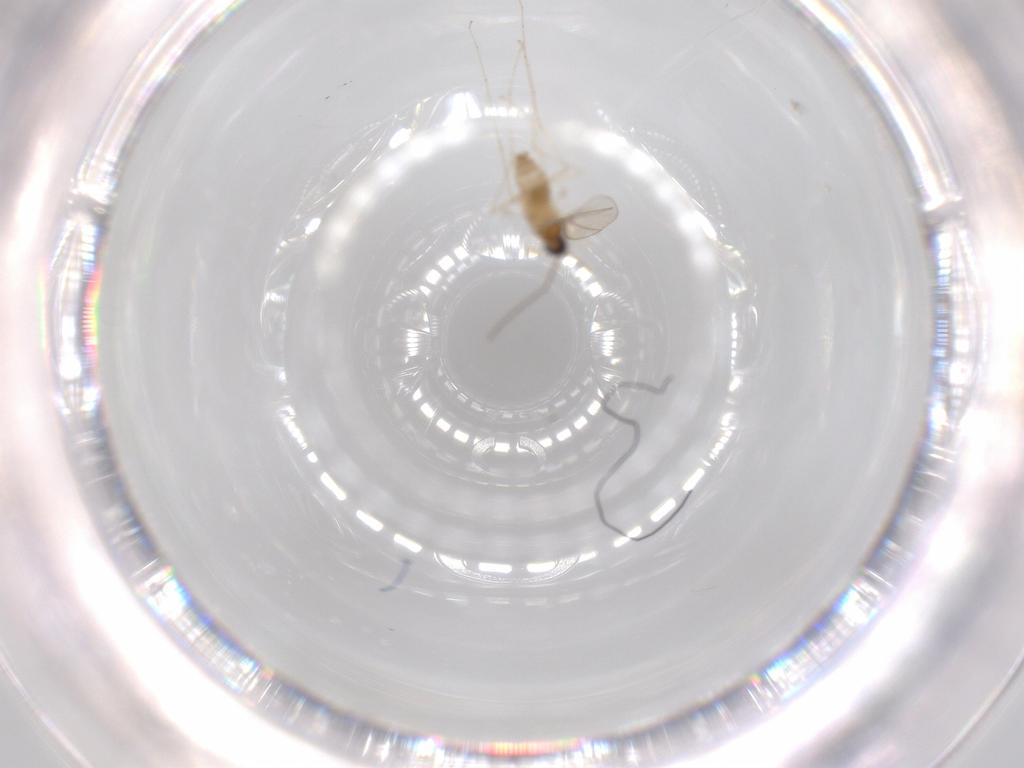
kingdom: Animalia
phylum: Arthropoda
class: Insecta
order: Diptera
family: Cecidomyiidae
